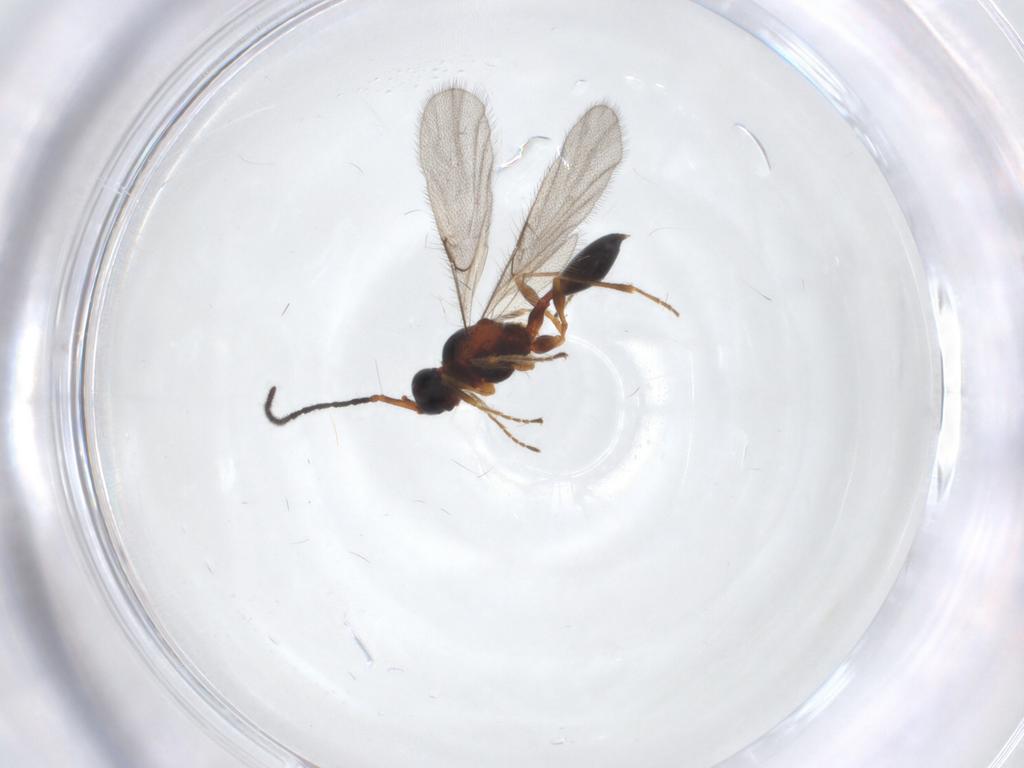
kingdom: Animalia
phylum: Arthropoda
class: Insecta
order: Hymenoptera
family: Diapriidae
